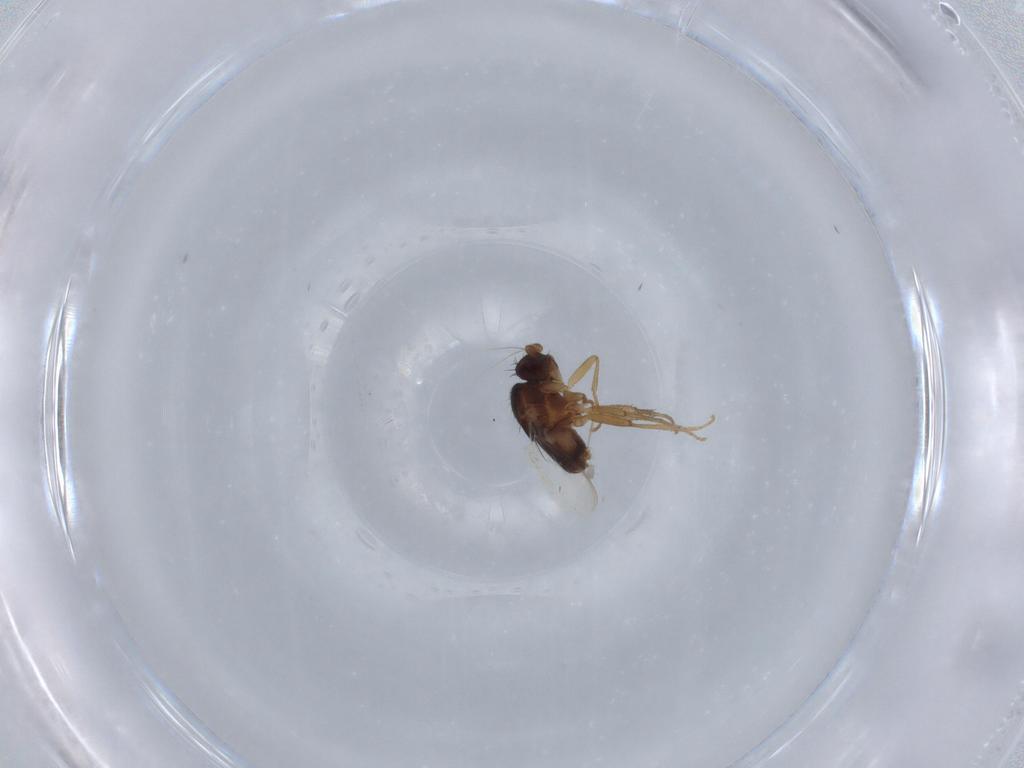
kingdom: Animalia
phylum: Arthropoda
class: Insecta
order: Diptera
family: Sphaeroceridae
